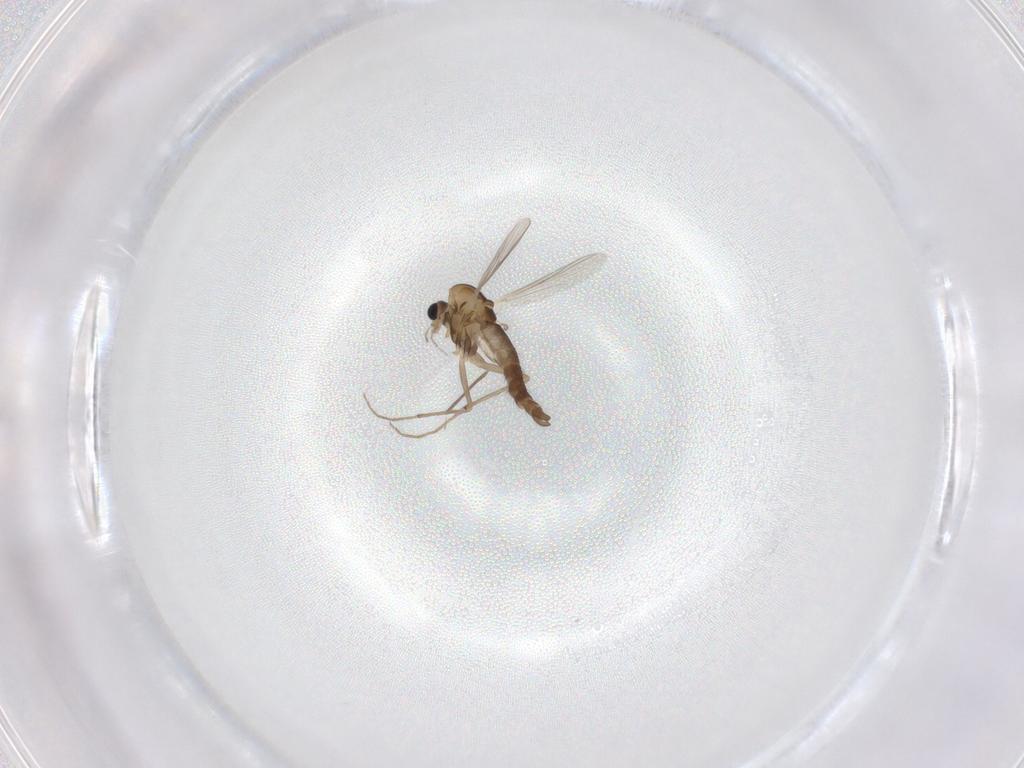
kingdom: Animalia
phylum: Arthropoda
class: Insecta
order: Diptera
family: Chironomidae
